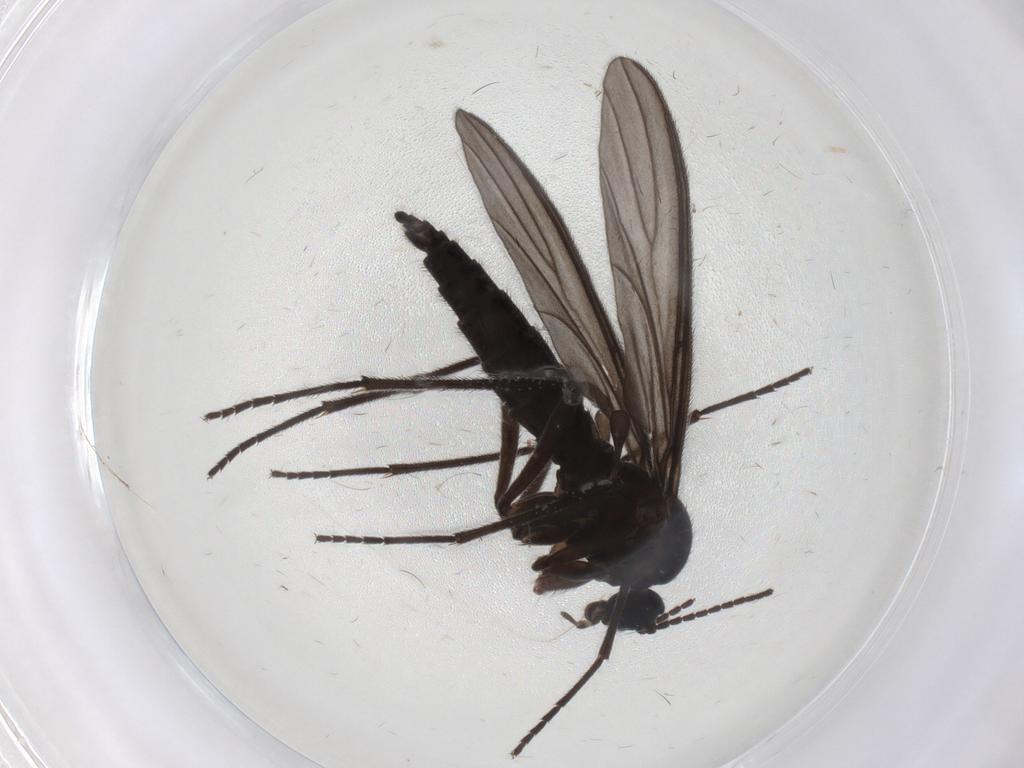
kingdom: Animalia
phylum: Arthropoda
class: Insecta
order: Diptera
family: Sciaridae
